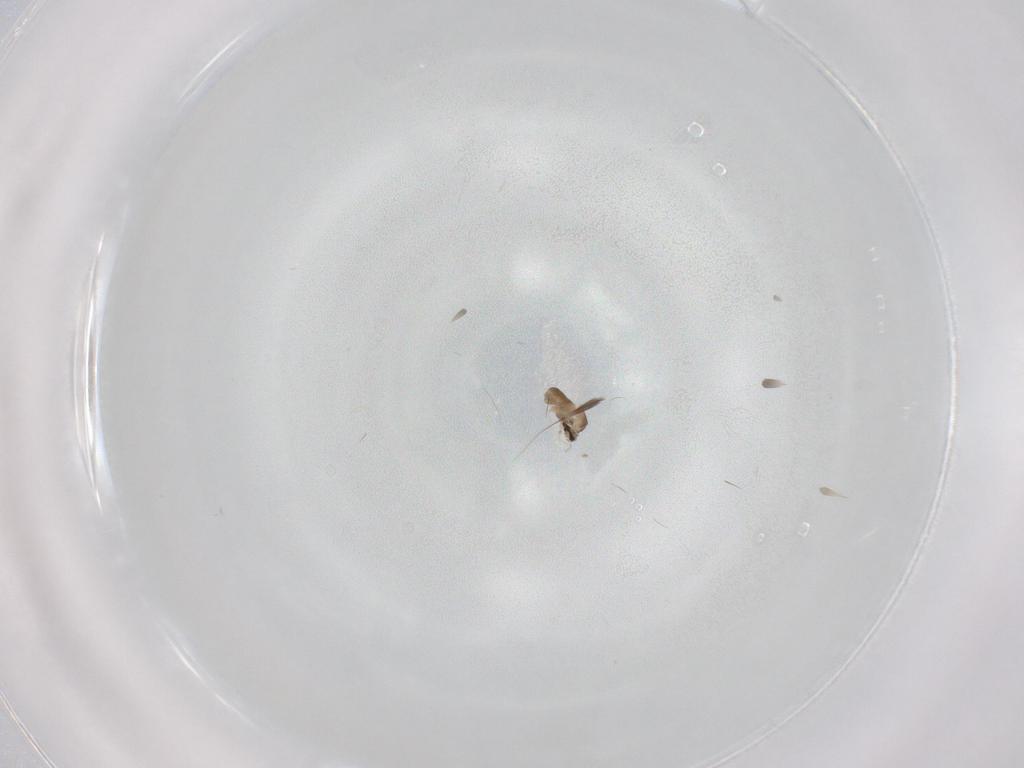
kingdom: Animalia
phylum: Arthropoda
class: Insecta
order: Diptera
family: Cecidomyiidae
